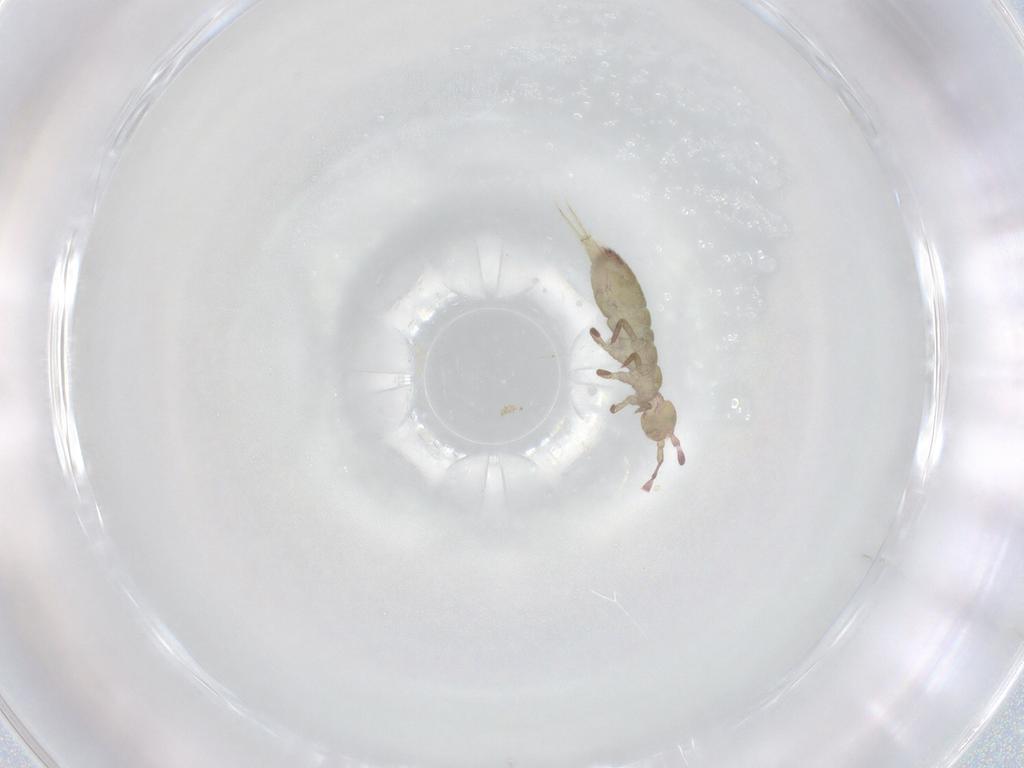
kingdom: Animalia
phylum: Arthropoda
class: Collembola
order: Entomobryomorpha
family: Isotomidae
